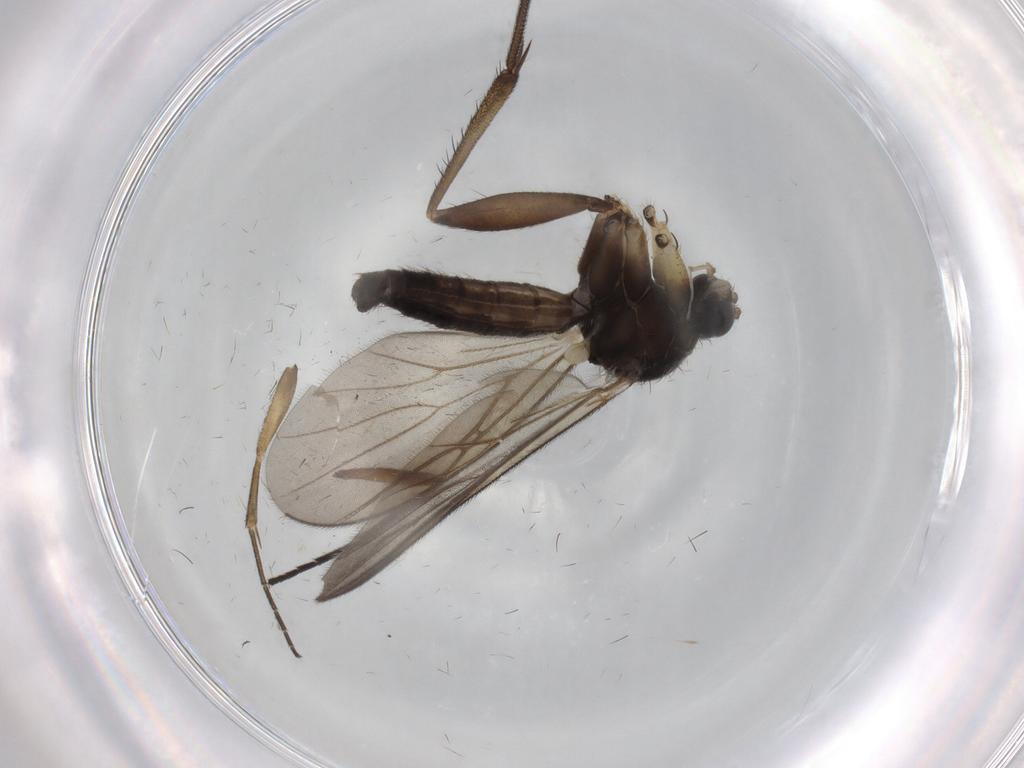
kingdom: Animalia
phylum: Arthropoda
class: Insecta
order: Diptera
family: Mycetophilidae
